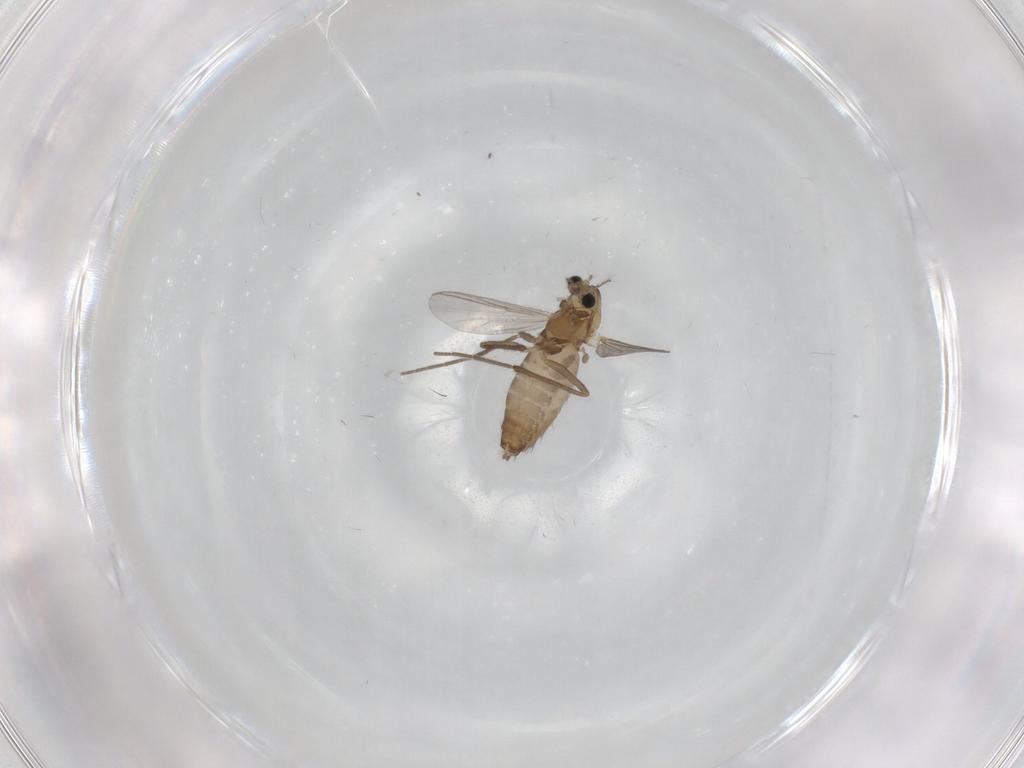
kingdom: Animalia
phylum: Arthropoda
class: Insecta
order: Diptera
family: Chironomidae
